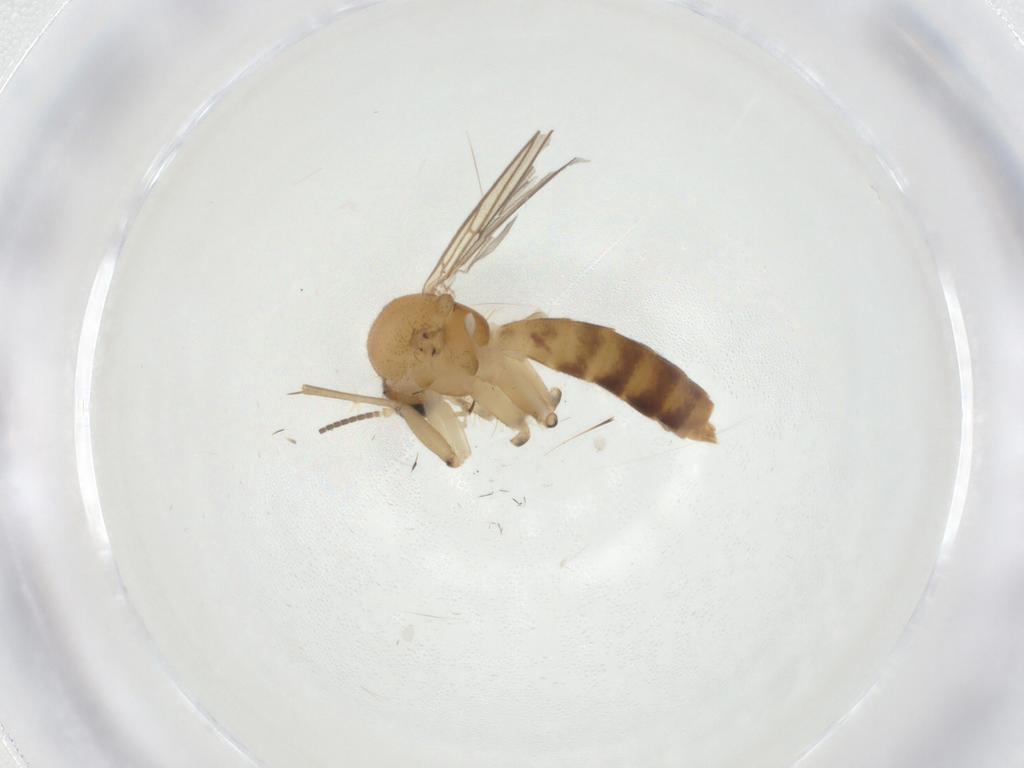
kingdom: Animalia
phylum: Arthropoda
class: Insecta
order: Diptera
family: Mycetophilidae
